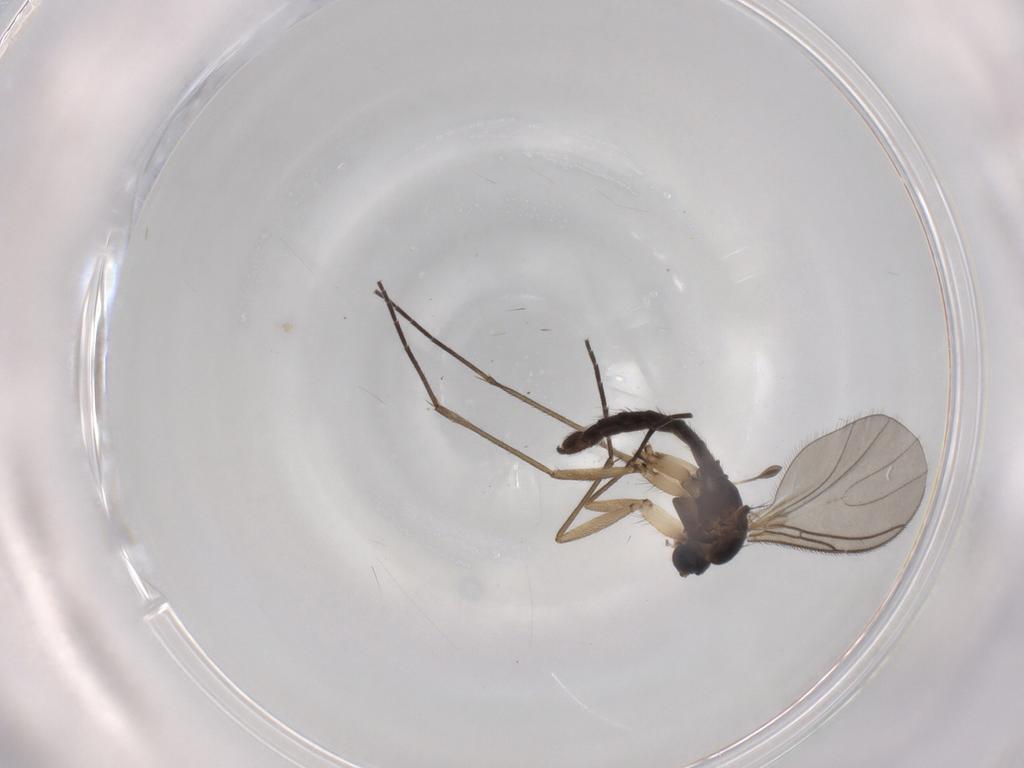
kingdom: Animalia
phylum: Arthropoda
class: Insecta
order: Diptera
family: Sciaridae
